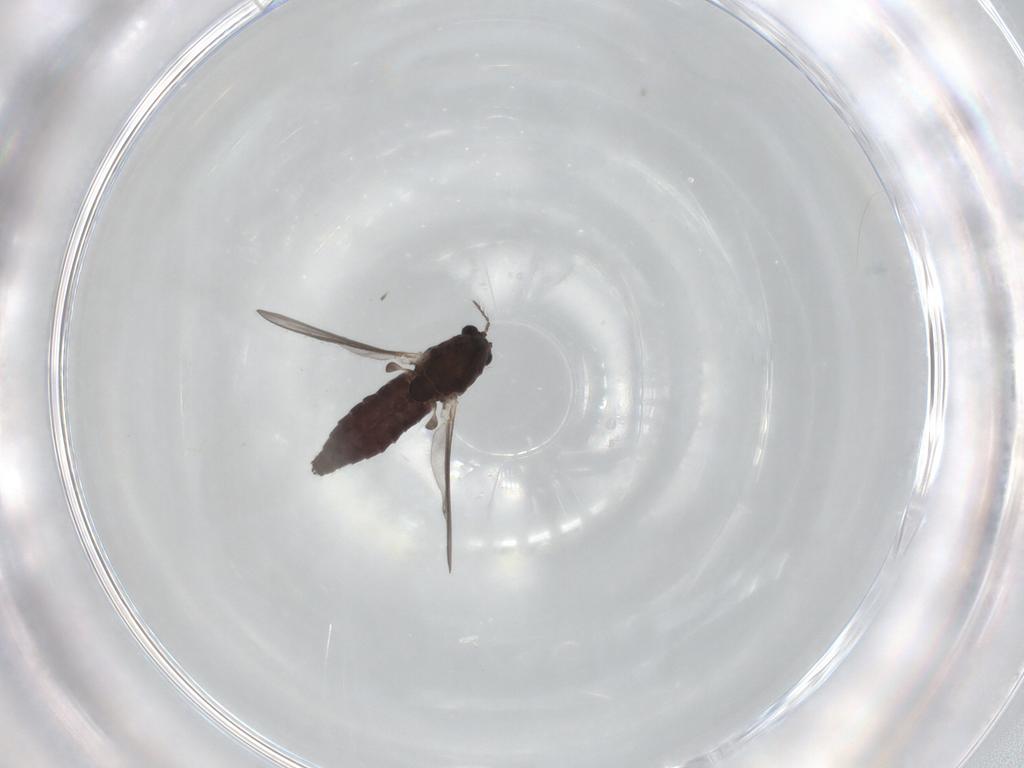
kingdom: Animalia
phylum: Arthropoda
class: Insecta
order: Diptera
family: Chironomidae
